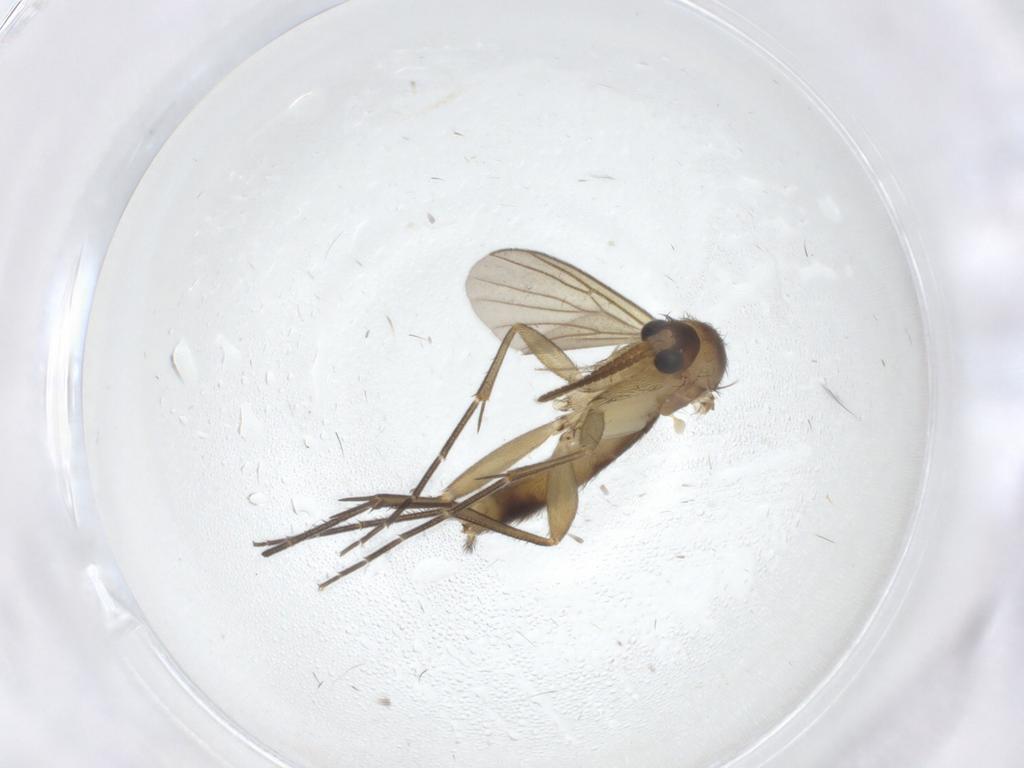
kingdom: Animalia
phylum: Arthropoda
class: Insecta
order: Diptera
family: Mycetophilidae
